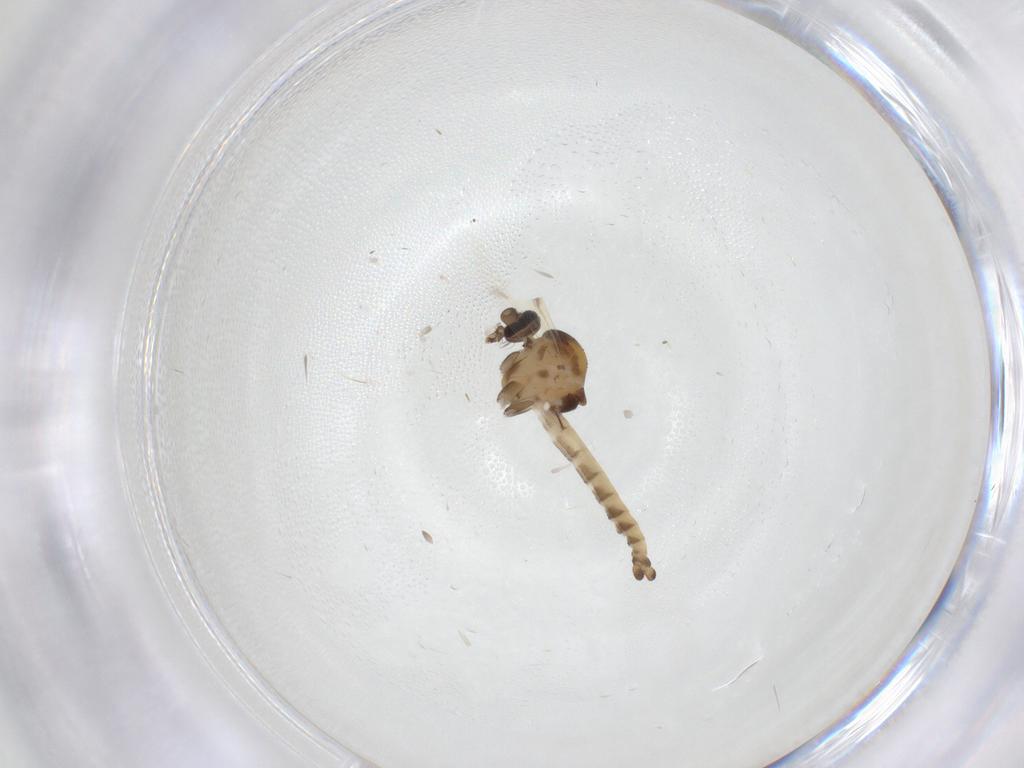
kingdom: Animalia
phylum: Arthropoda
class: Insecta
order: Diptera
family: Ceratopogonidae
